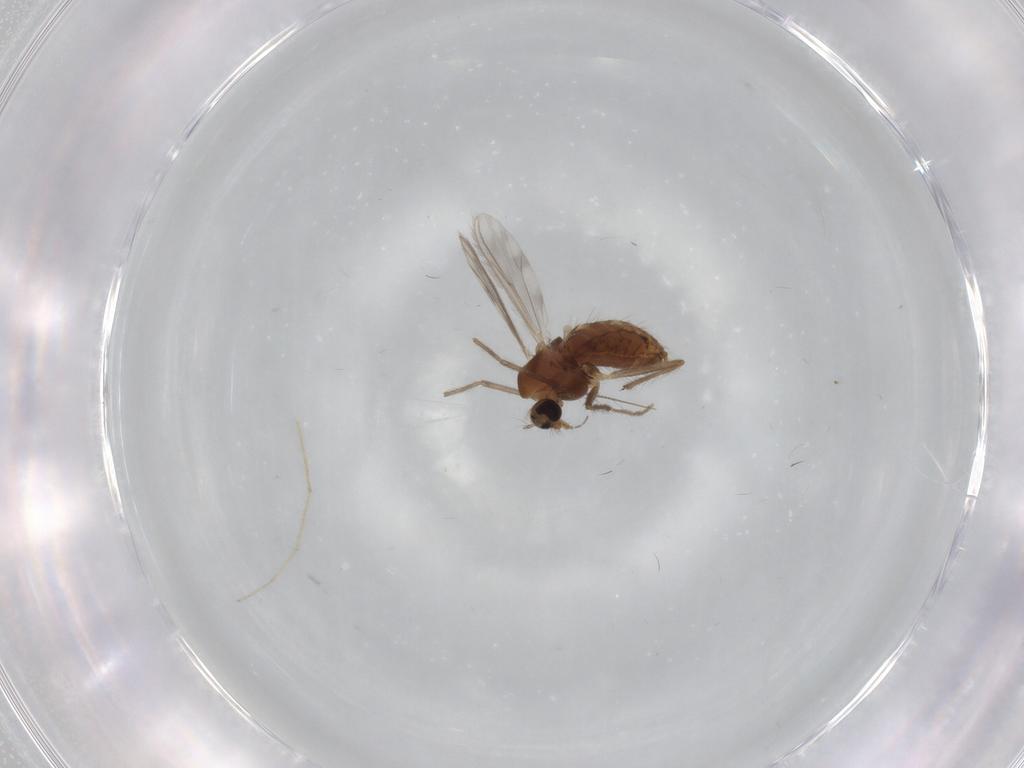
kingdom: Animalia
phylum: Arthropoda
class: Insecta
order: Diptera
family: Chironomidae
